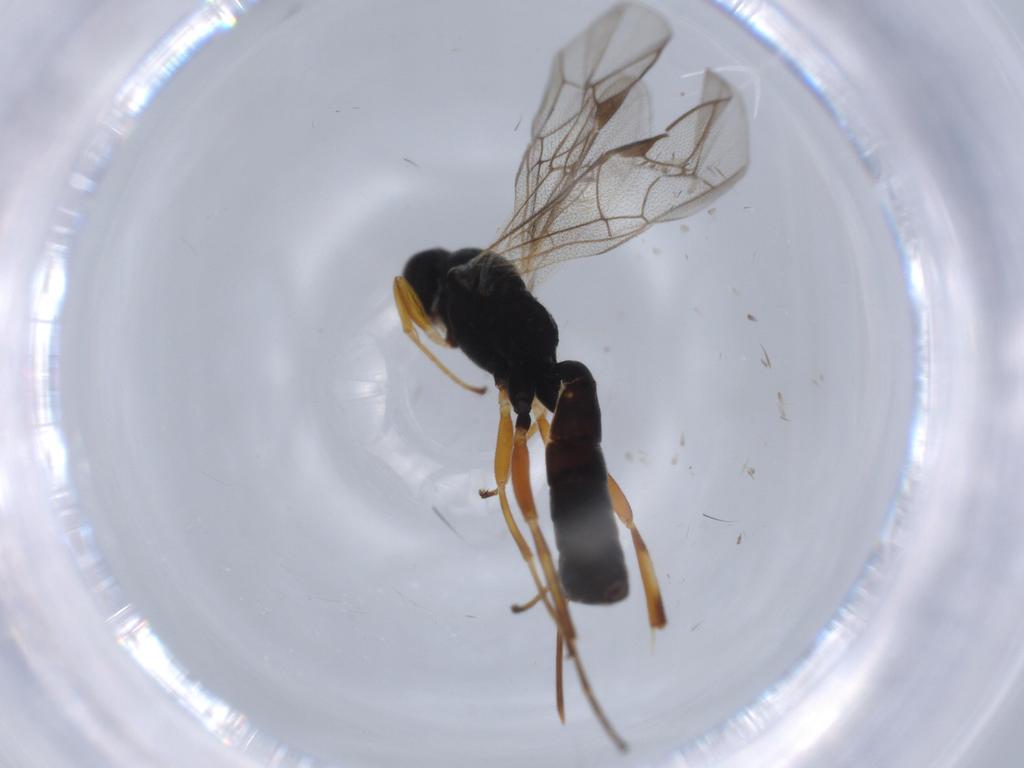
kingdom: Animalia
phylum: Arthropoda
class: Insecta
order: Hymenoptera
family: Ichneumonidae
